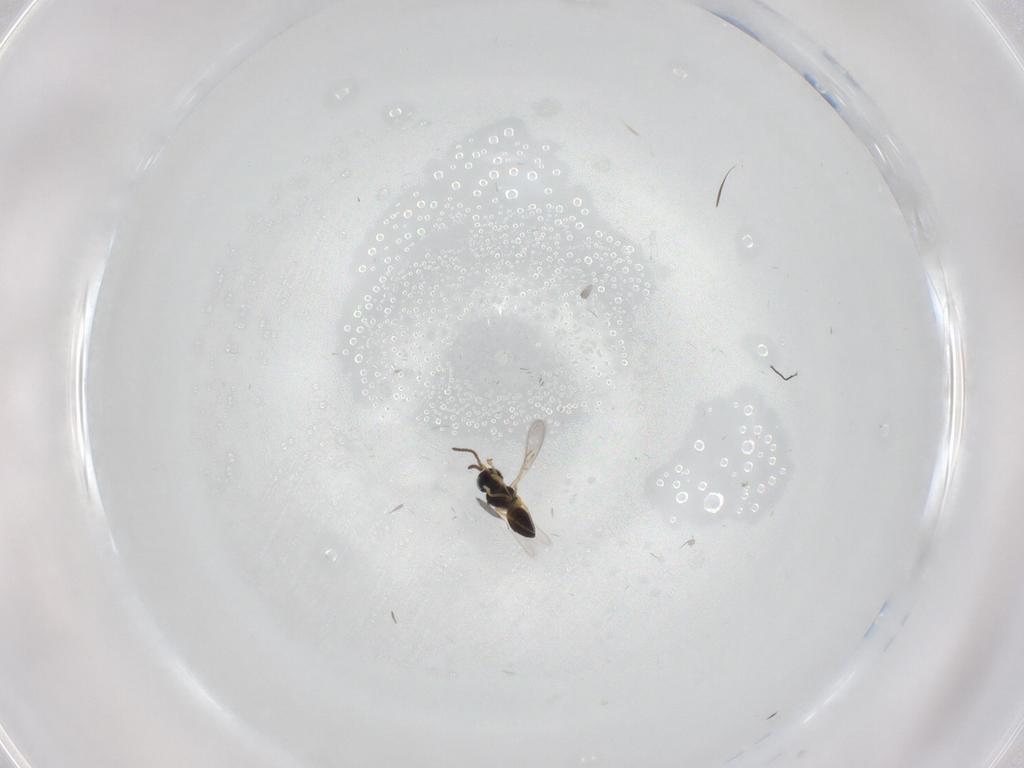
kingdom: Animalia
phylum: Arthropoda
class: Insecta
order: Hymenoptera
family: Scelionidae
